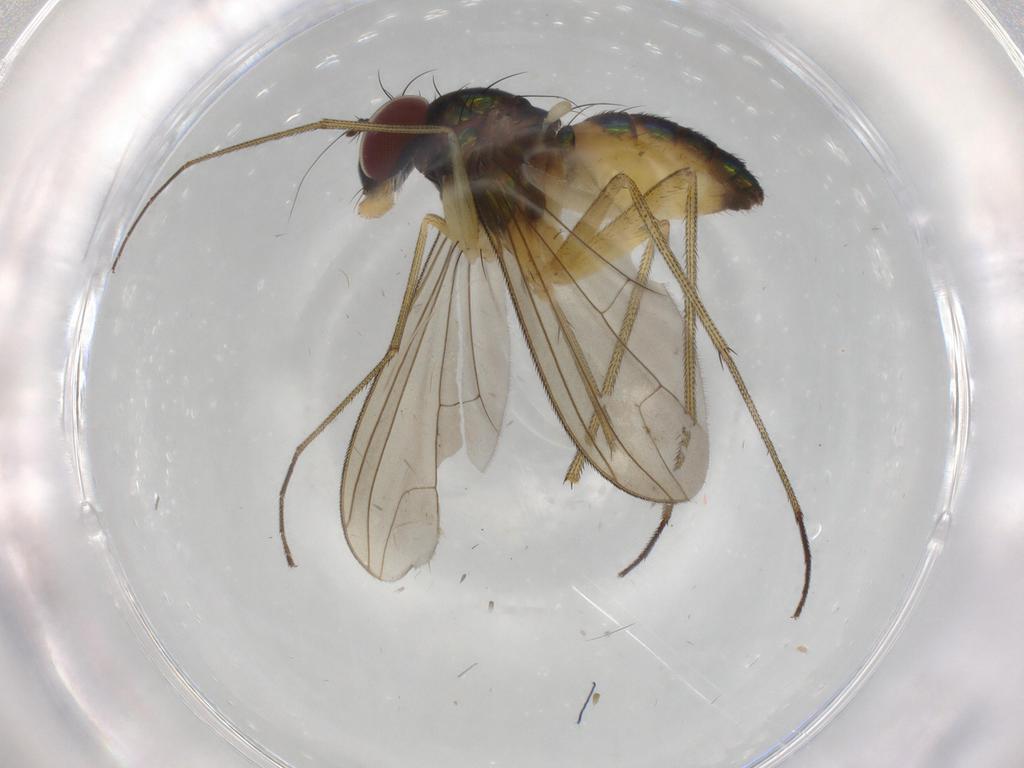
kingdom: Animalia
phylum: Arthropoda
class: Insecta
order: Diptera
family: Dolichopodidae
